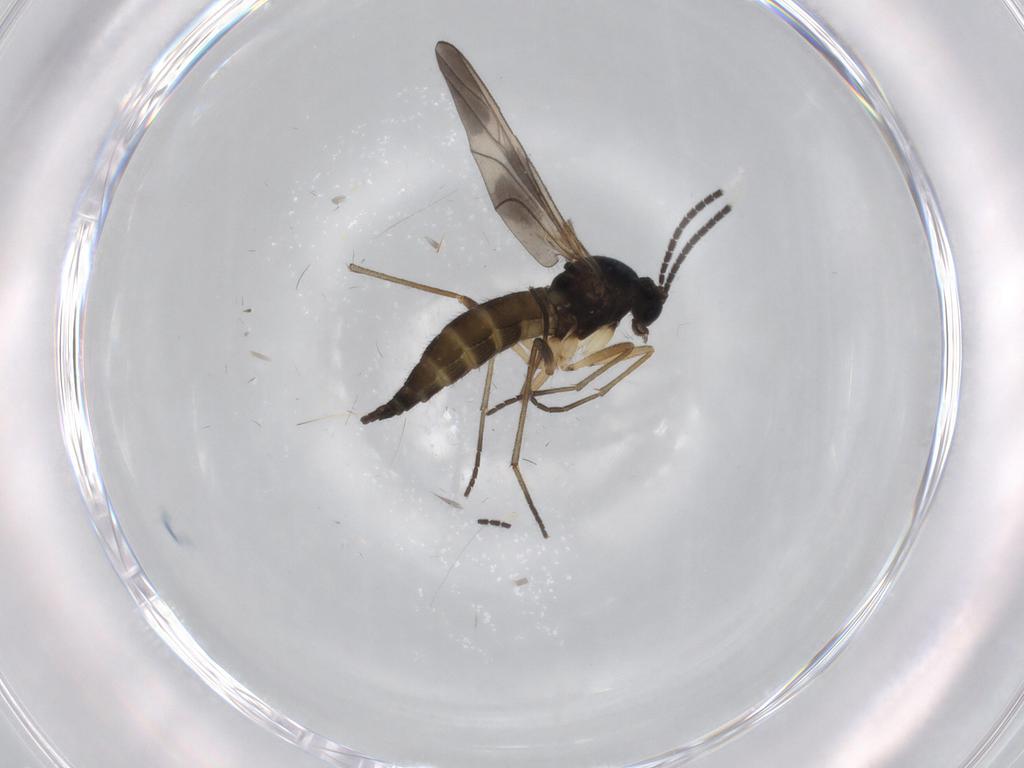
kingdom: Animalia
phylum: Arthropoda
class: Insecta
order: Diptera
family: Sciaridae
